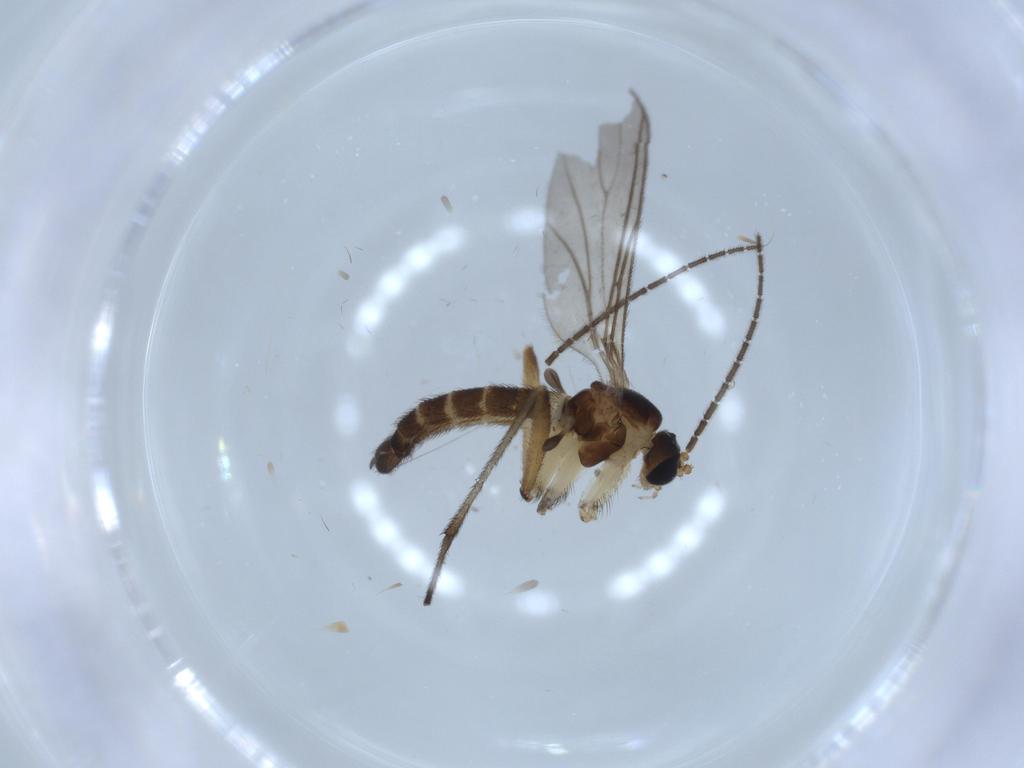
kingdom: Animalia
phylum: Arthropoda
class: Insecta
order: Diptera
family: Sciaridae
